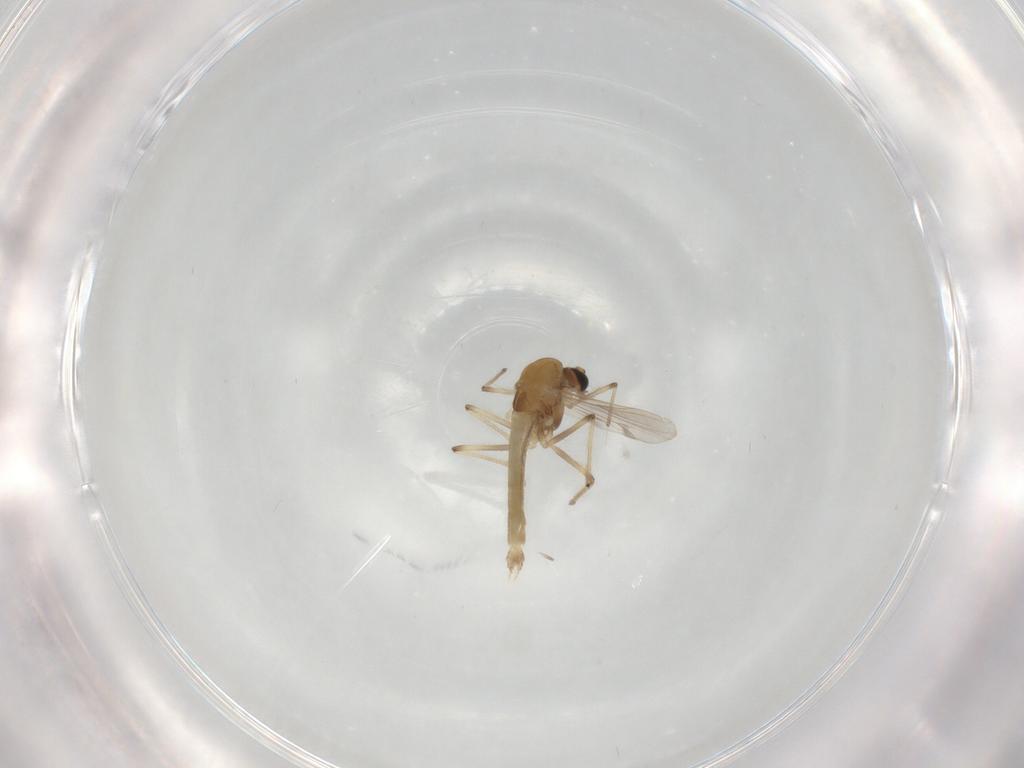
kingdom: Animalia
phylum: Arthropoda
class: Insecta
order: Diptera
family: Chironomidae
